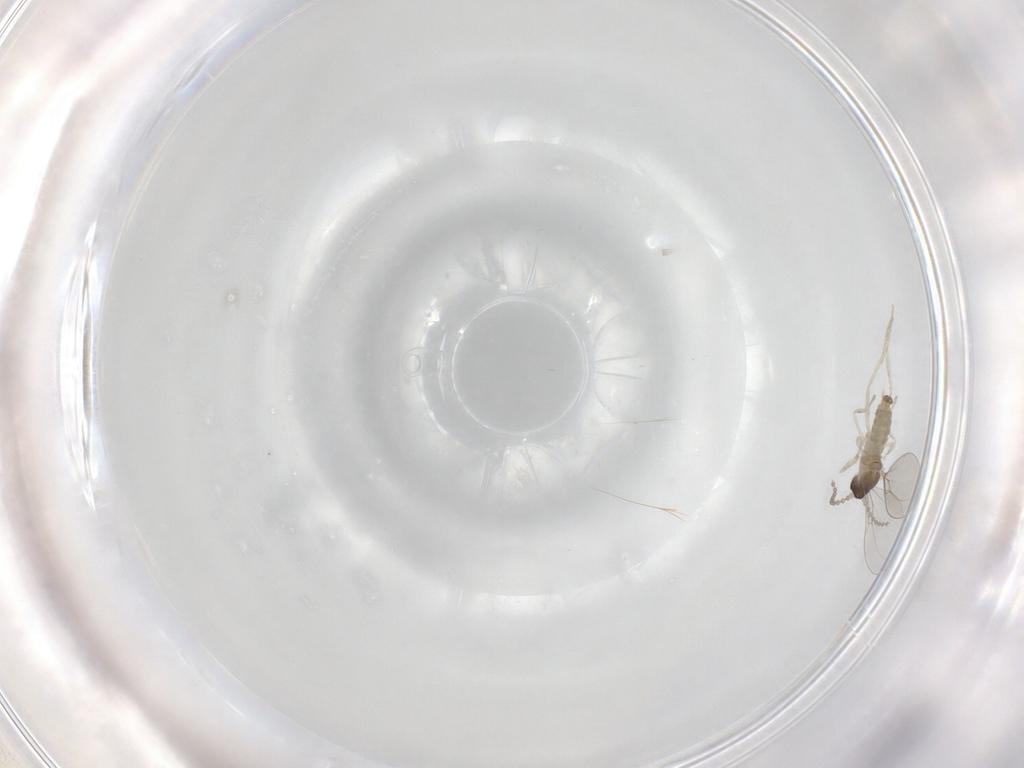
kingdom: Animalia
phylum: Arthropoda
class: Insecta
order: Diptera
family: Cecidomyiidae
